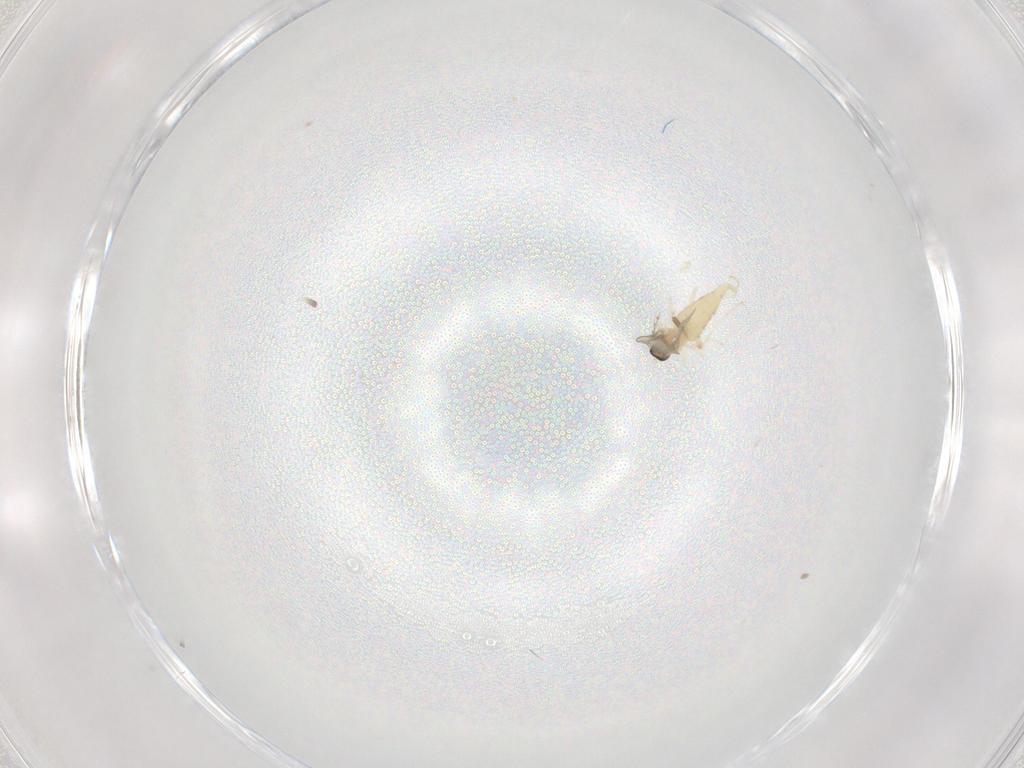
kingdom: Animalia
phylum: Arthropoda
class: Insecta
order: Diptera
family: Cecidomyiidae
